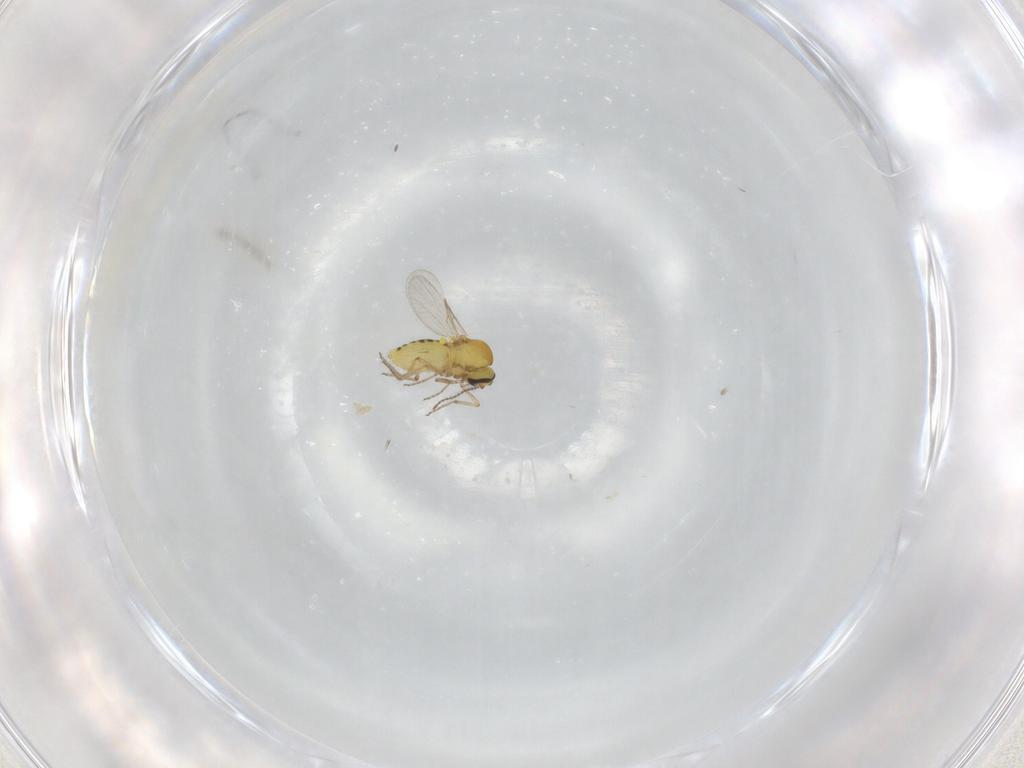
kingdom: Animalia
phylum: Arthropoda
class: Insecta
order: Diptera
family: Ceratopogonidae
